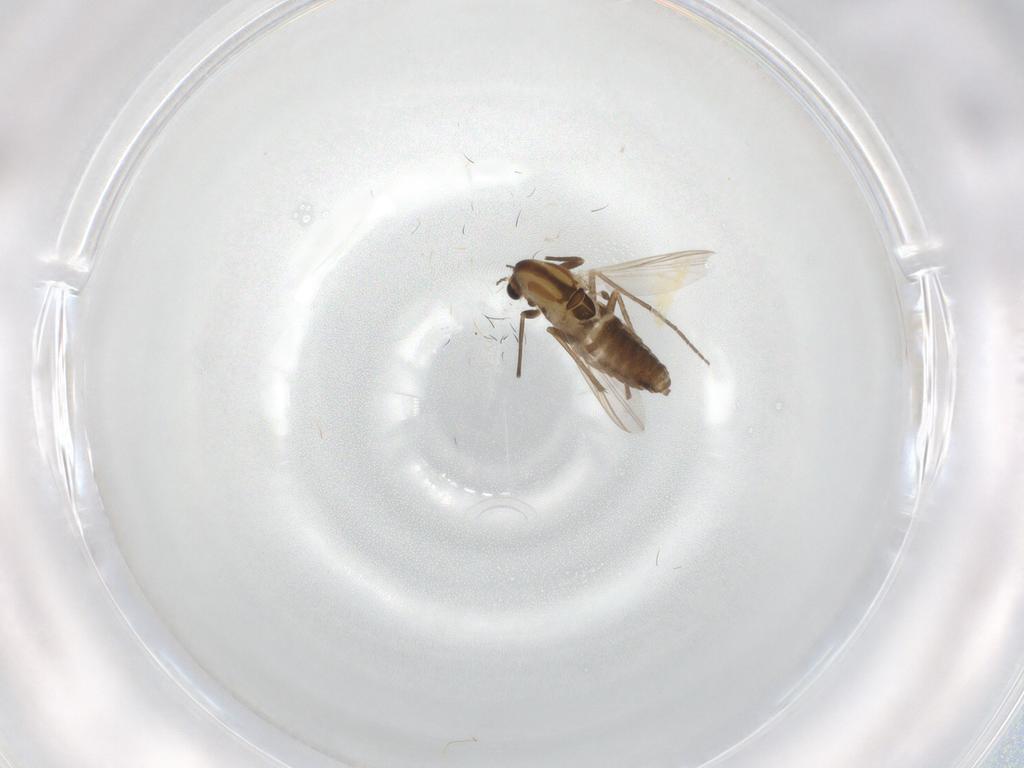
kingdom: Animalia
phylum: Arthropoda
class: Insecta
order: Diptera
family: Chironomidae
